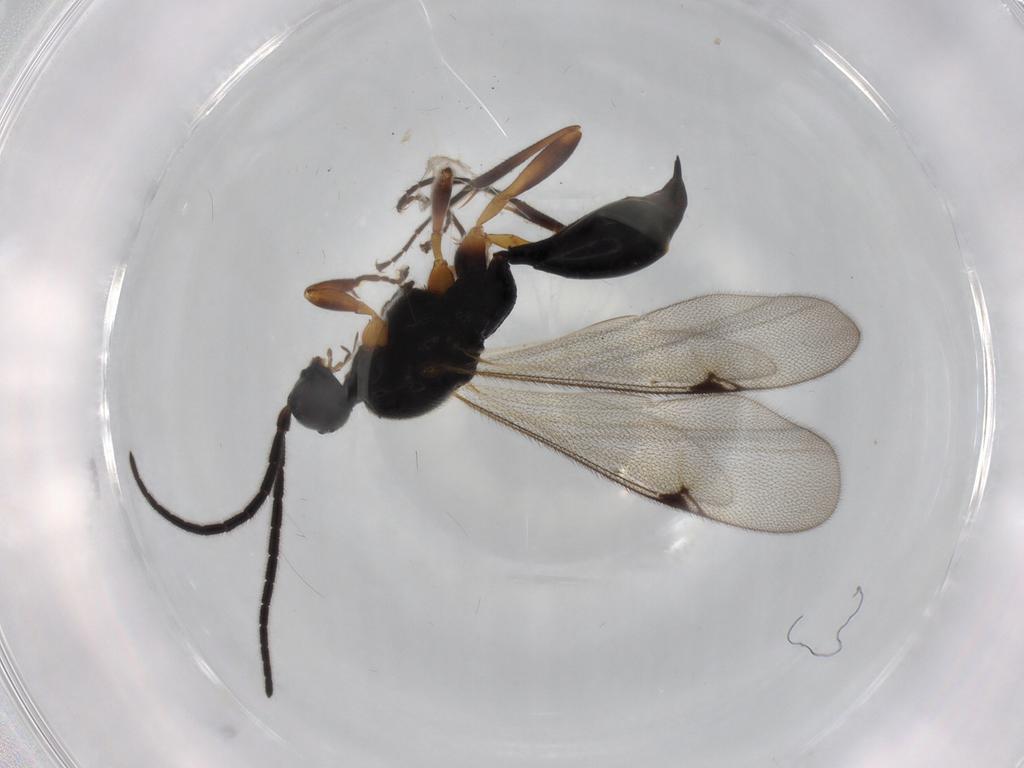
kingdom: Animalia
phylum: Arthropoda
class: Insecta
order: Hymenoptera
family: Proctotrupidae
